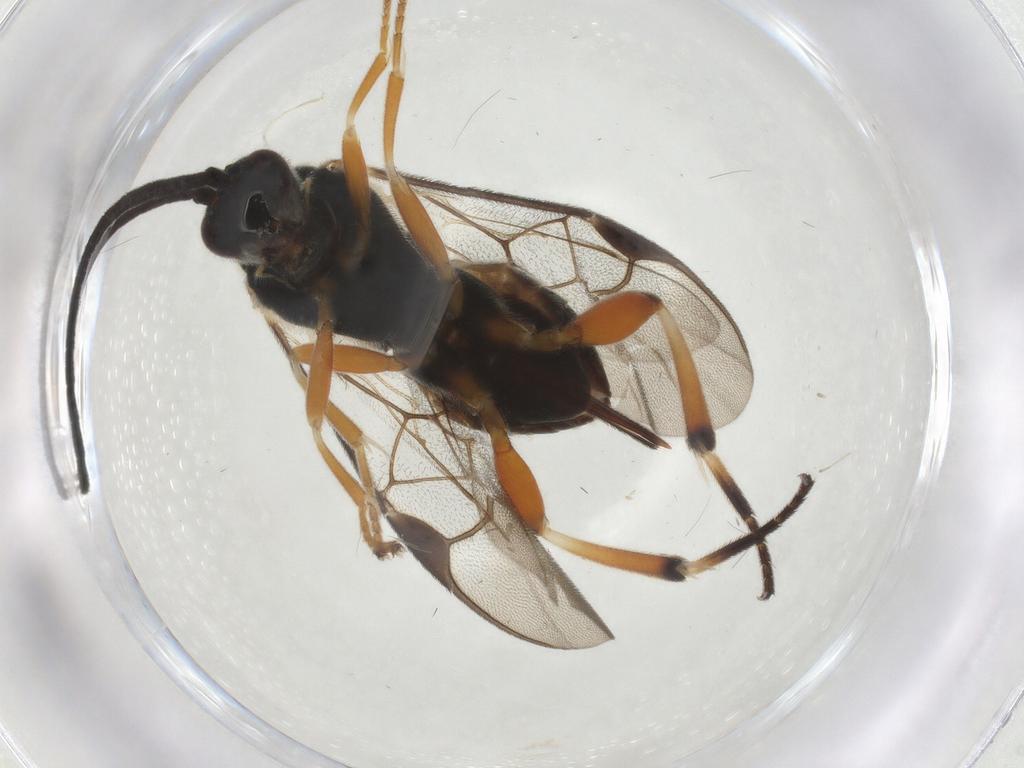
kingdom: Animalia
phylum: Arthropoda
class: Insecta
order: Hymenoptera
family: Braconidae
